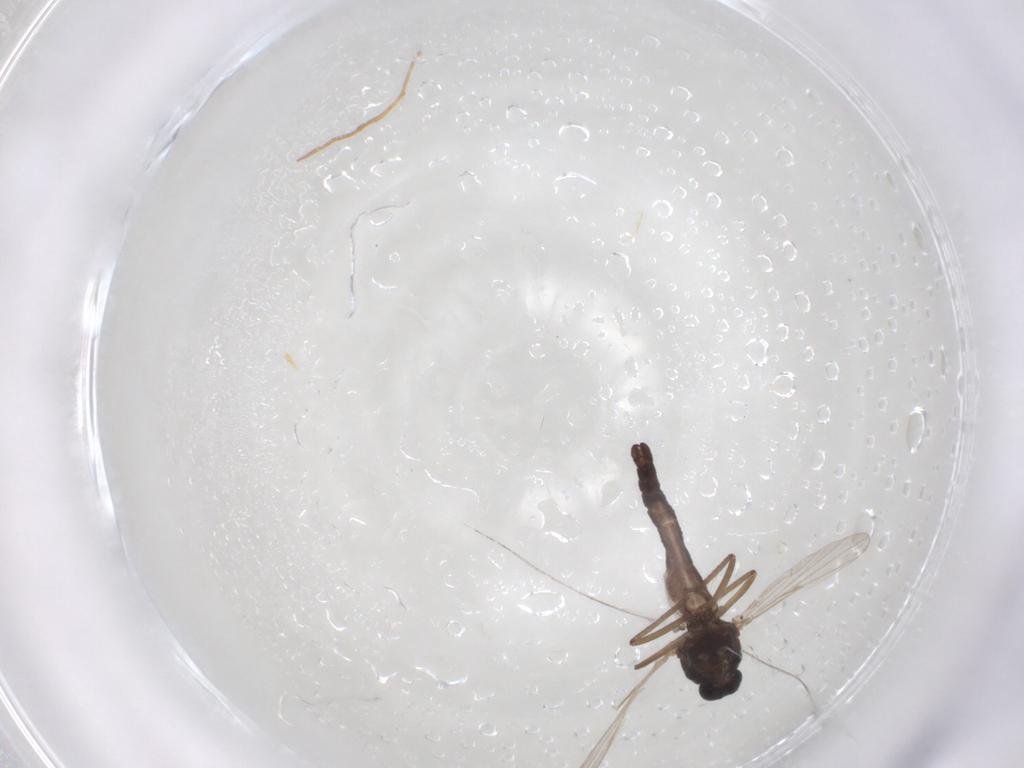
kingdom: Animalia
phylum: Arthropoda
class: Insecta
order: Diptera
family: Ceratopogonidae
